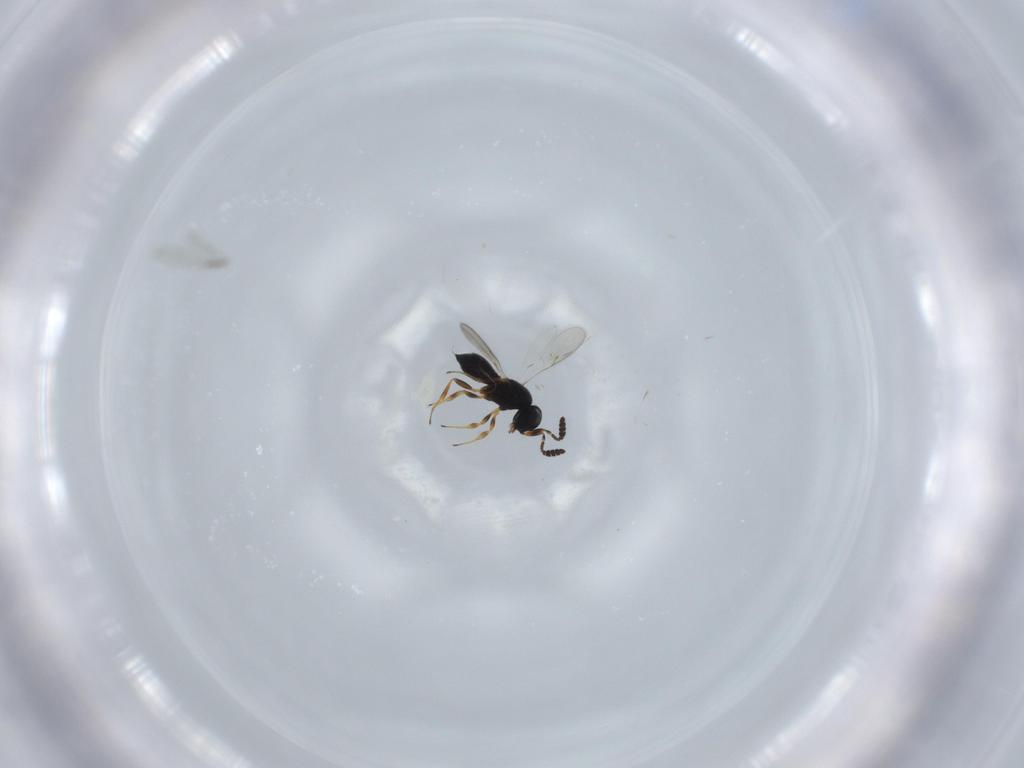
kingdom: Animalia
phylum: Arthropoda
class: Insecta
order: Hymenoptera
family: Scelionidae
